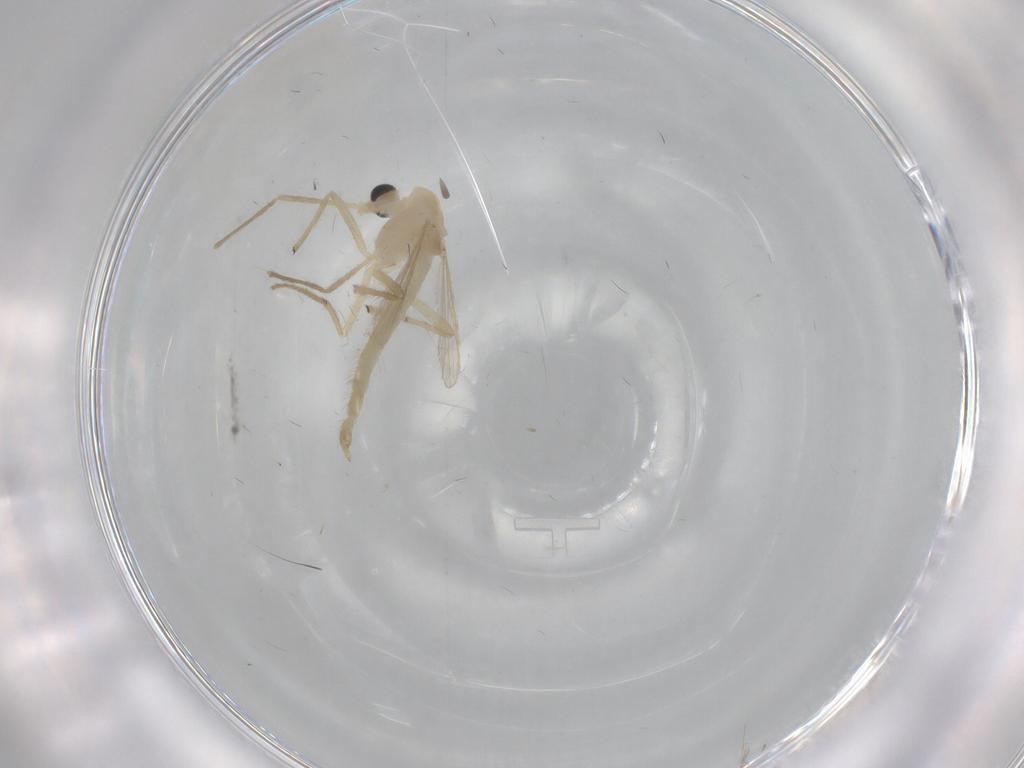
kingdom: Animalia
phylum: Arthropoda
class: Insecta
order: Diptera
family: Chironomidae
